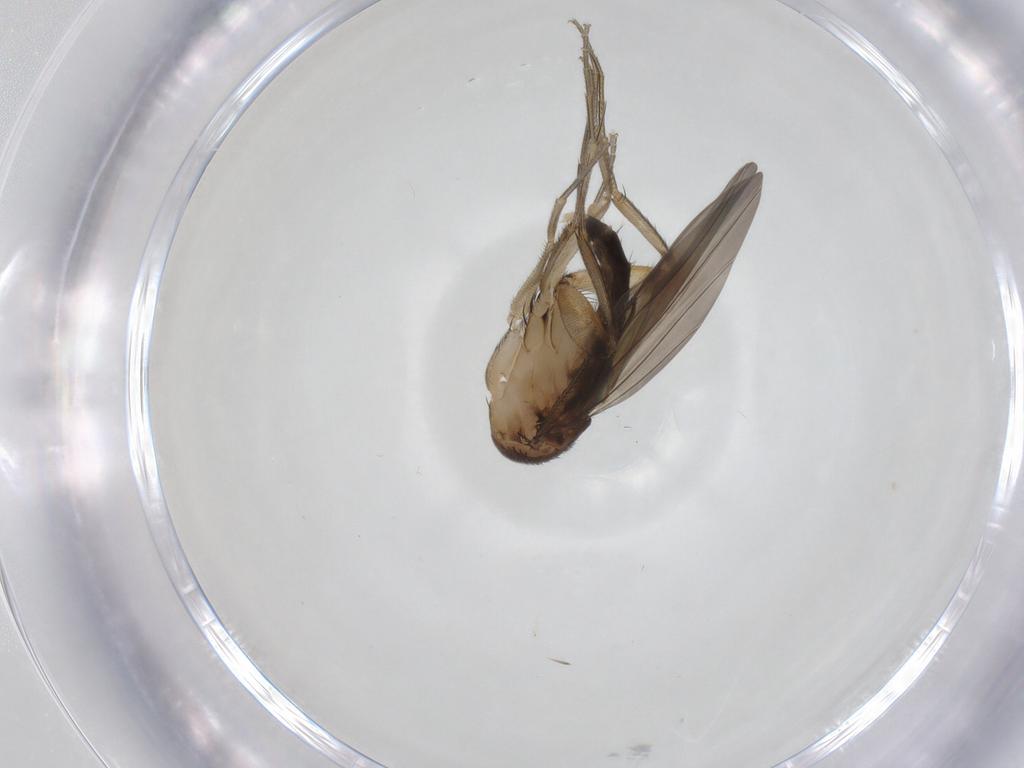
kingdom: Animalia
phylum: Arthropoda
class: Insecta
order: Diptera
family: Phoridae
